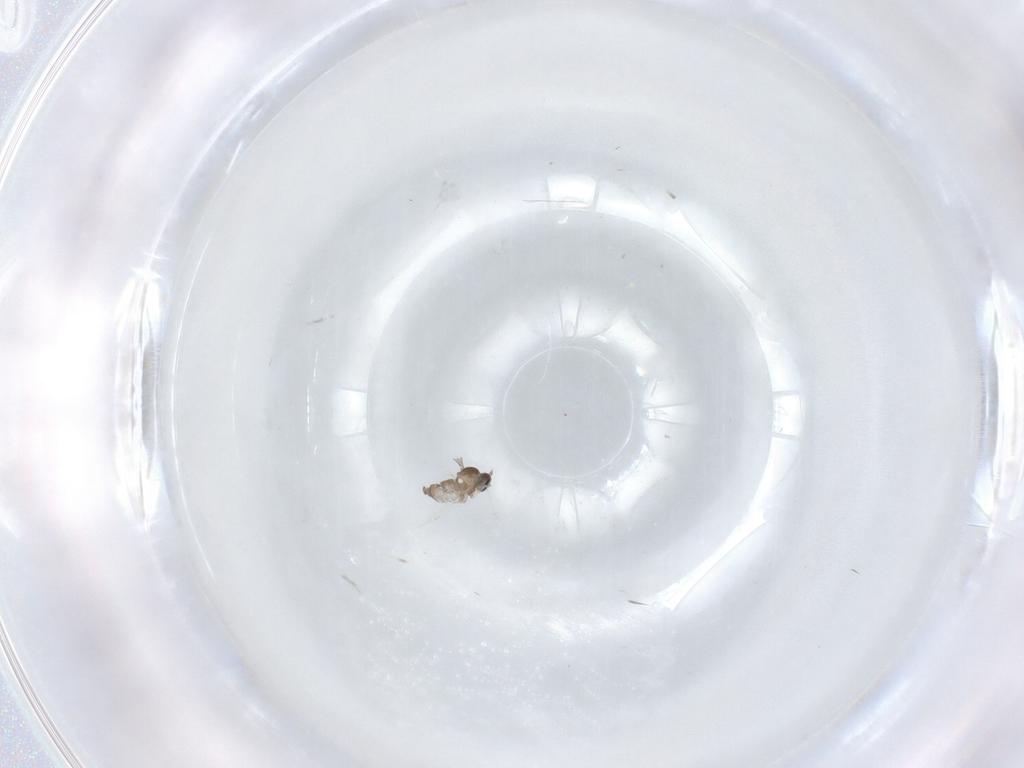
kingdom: Animalia
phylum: Arthropoda
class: Insecta
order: Diptera
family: Cecidomyiidae
